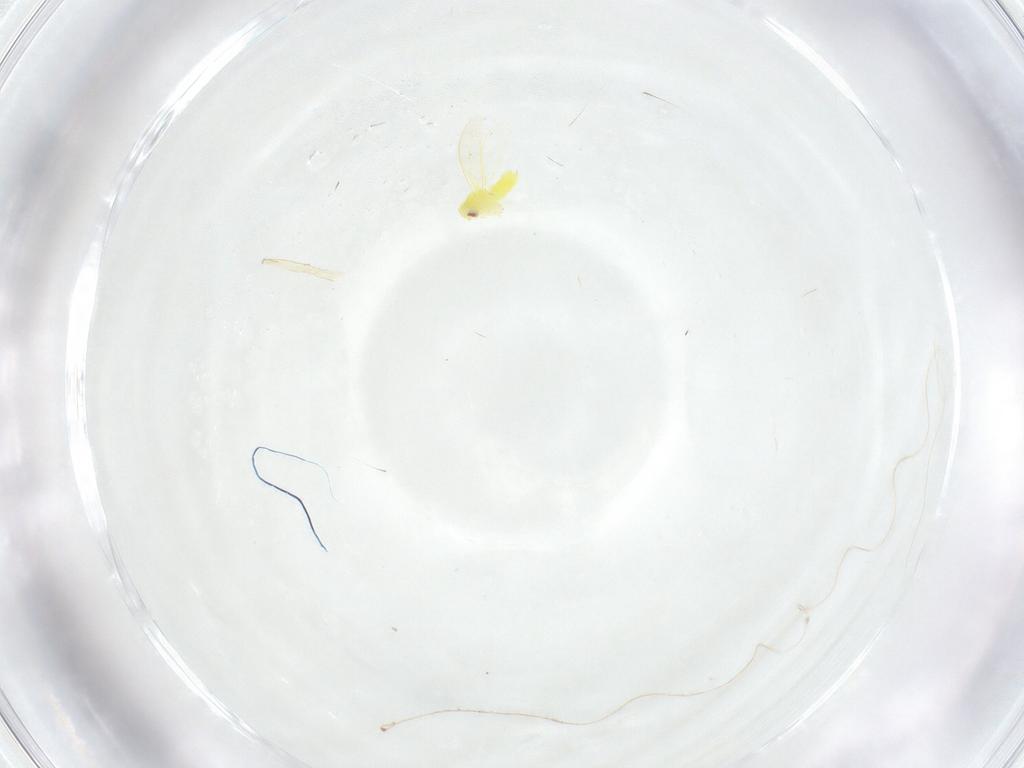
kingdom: Animalia
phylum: Arthropoda
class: Insecta
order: Hemiptera
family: Aleyrodidae
